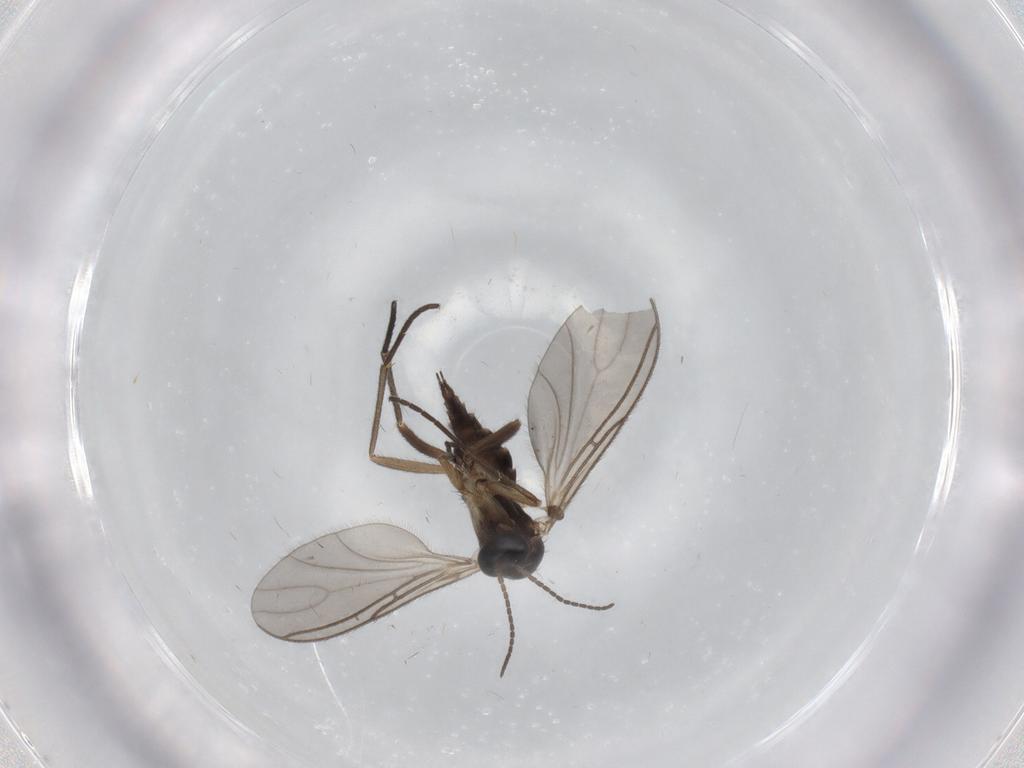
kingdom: Animalia
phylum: Arthropoda
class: Insecta
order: Diptera
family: Sciaridae
